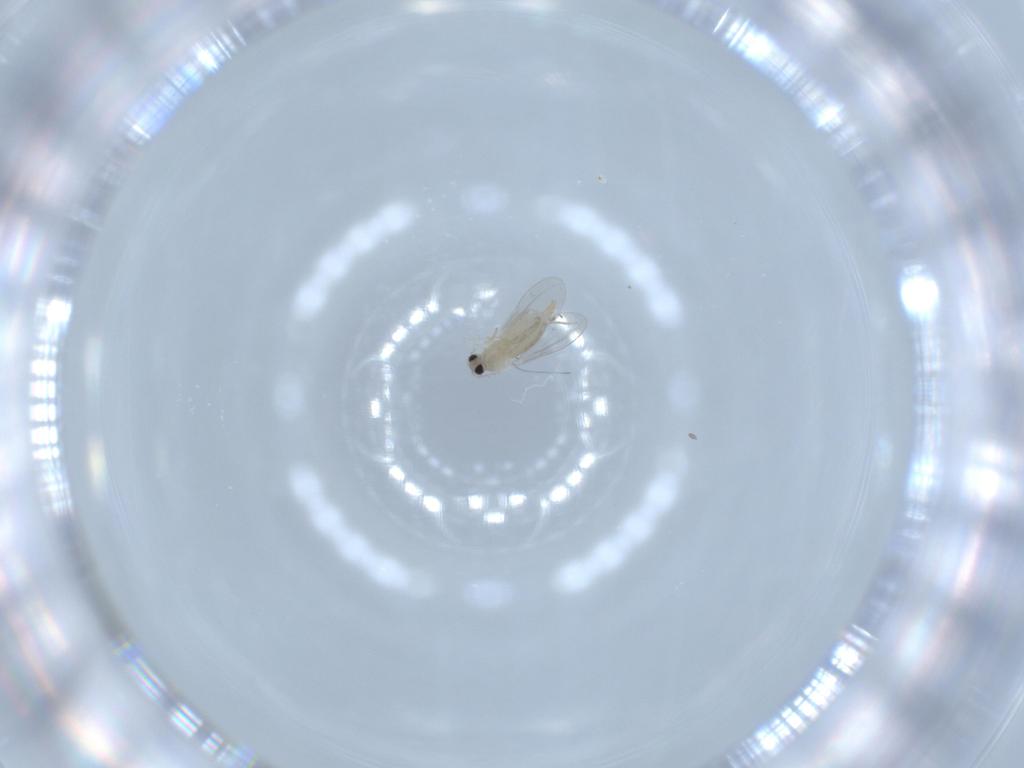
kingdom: Animalia
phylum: Arthropoda
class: Insecta
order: Diptera
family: Cecidomyiidae
